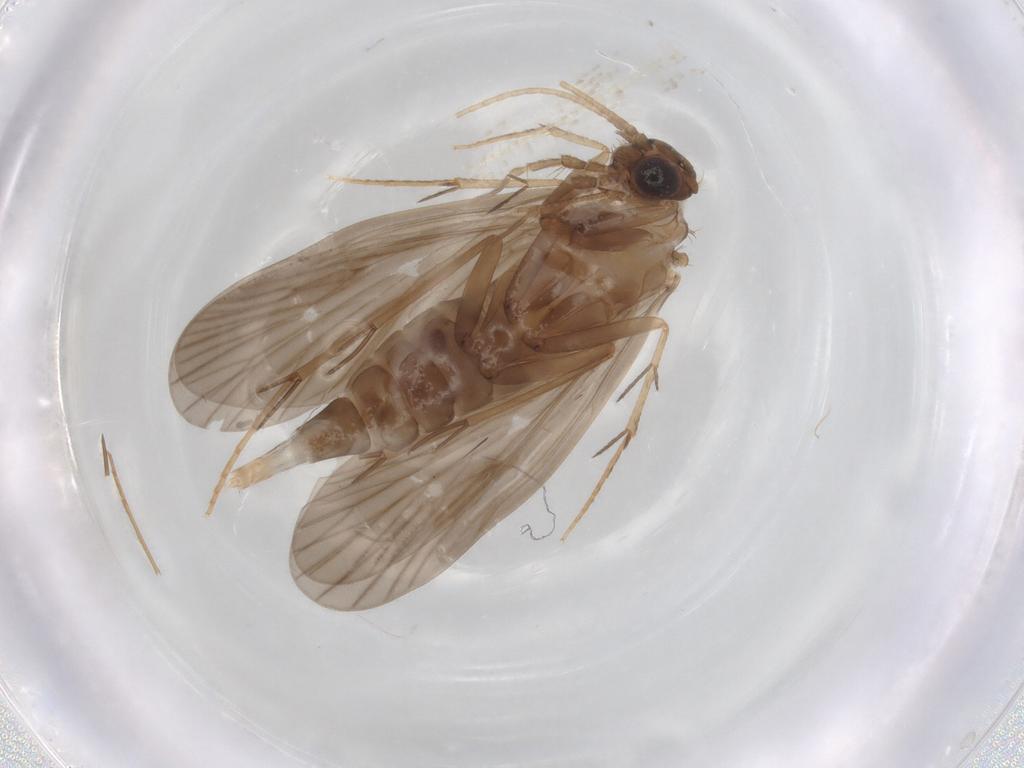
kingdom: Animalia
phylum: Arthropoda
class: Insecta
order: Trichoptera
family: Philopotamidae
